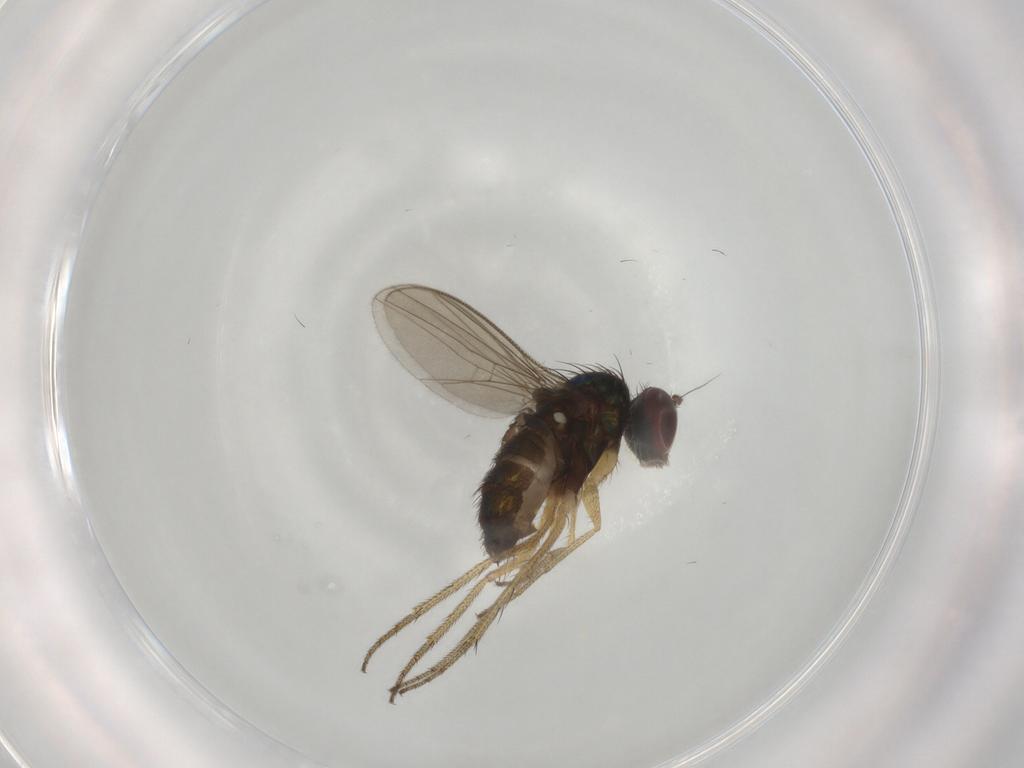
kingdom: Animalia
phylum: Arthropoda
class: Insecta
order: Diptera
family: Dolichopodidae
